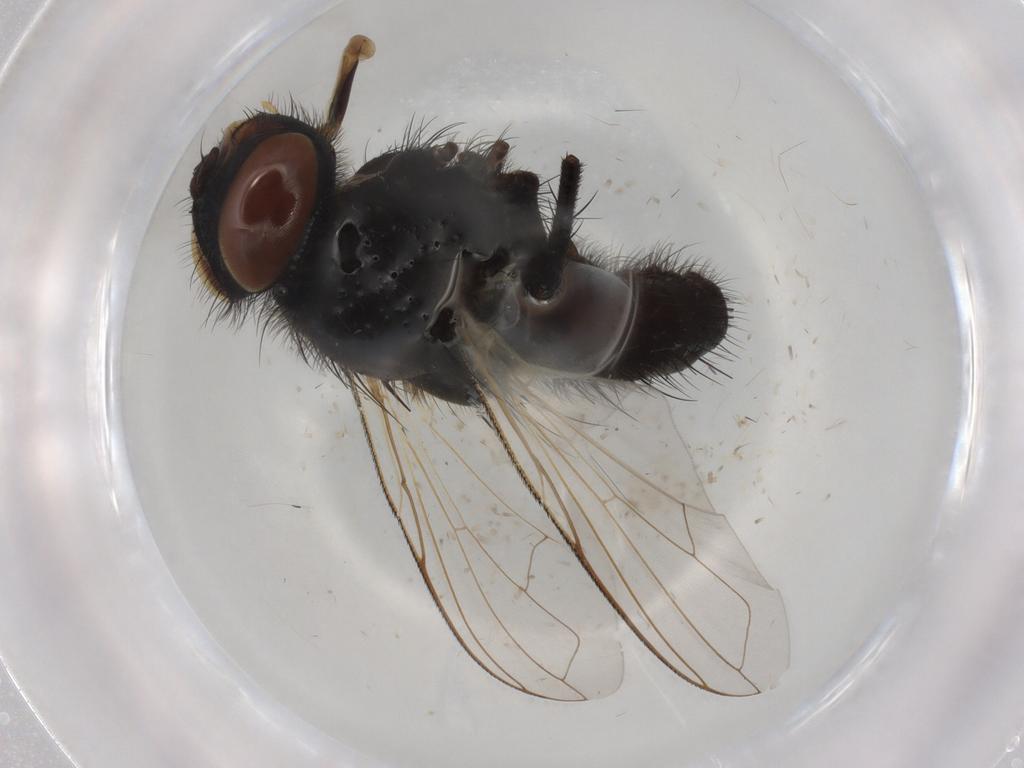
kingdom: Animalia
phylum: Arthropoda
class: Insecta
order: Diptera
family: Tachinidae
